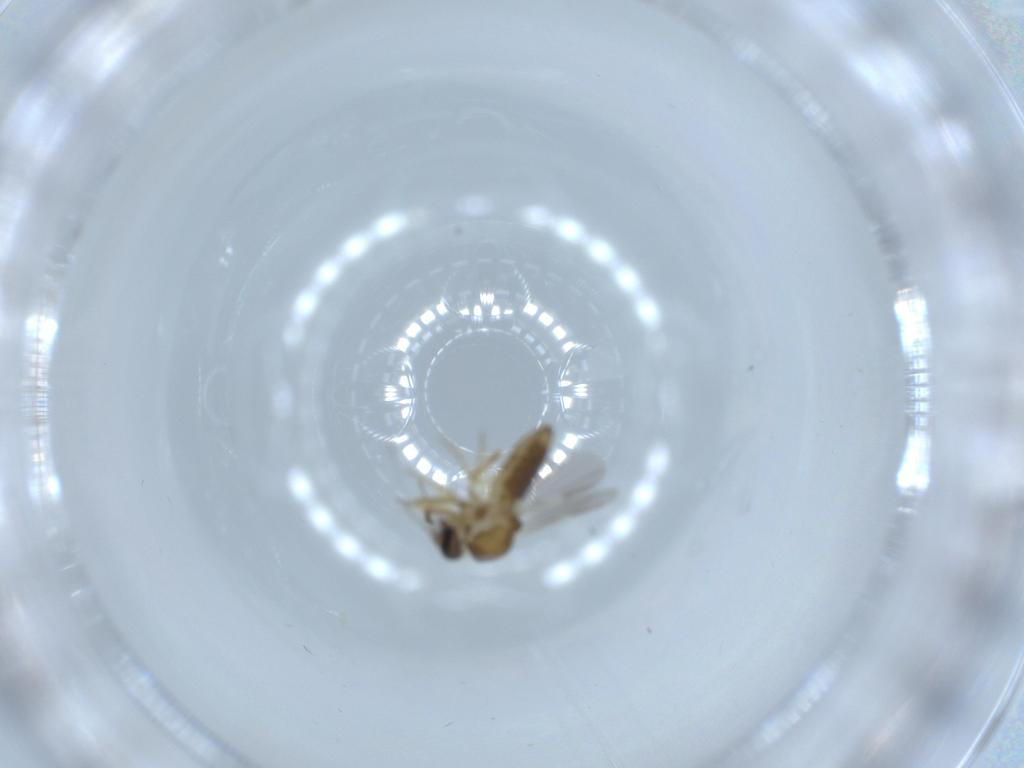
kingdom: Animalia
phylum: Arthropoda
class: Insecta
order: Diptera
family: Ceratopogonidae
